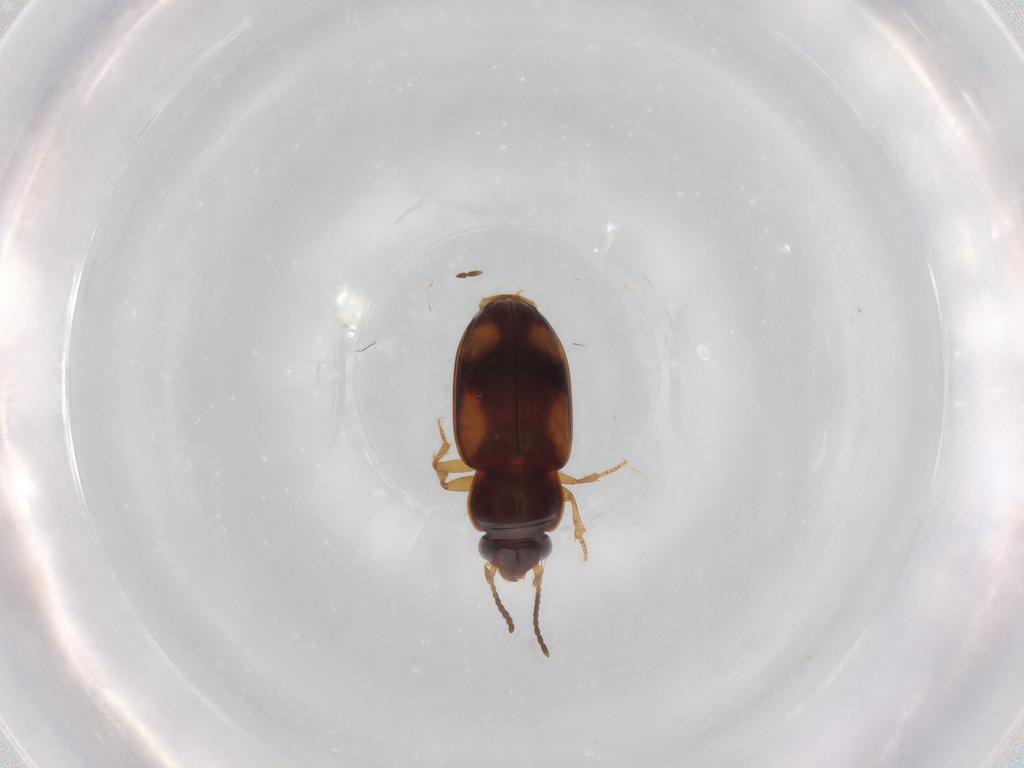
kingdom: Animalia
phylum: Arthropoda
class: Insecta
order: Coleoptera
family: Carabidae
